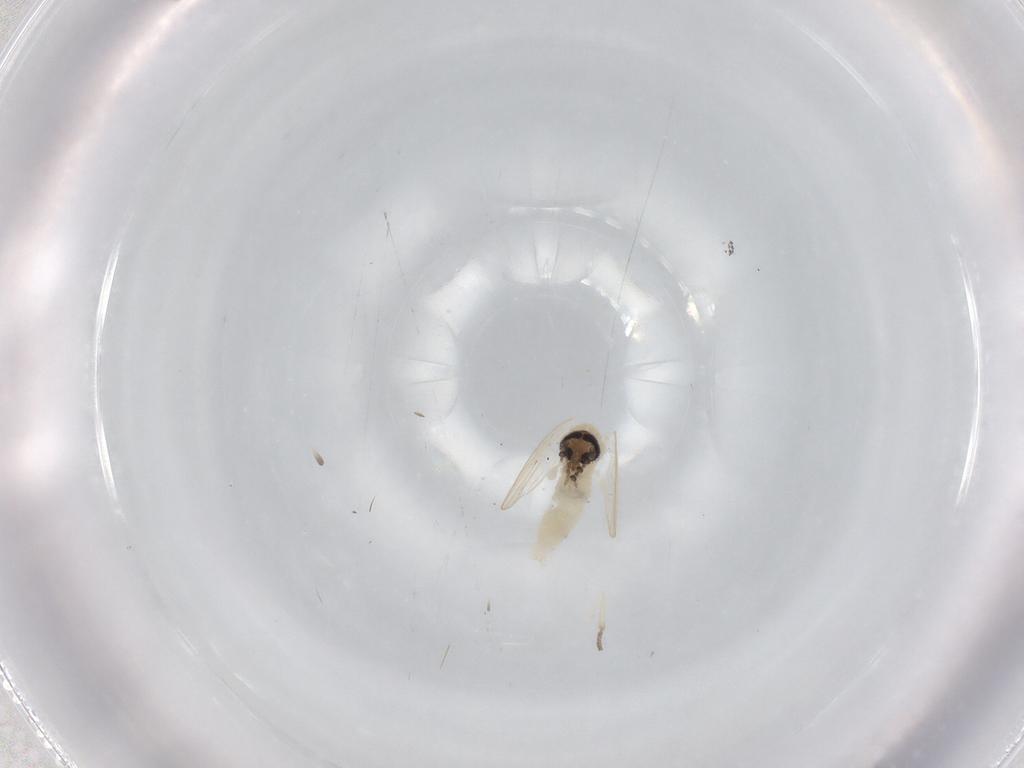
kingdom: Animalia
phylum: Arthropoda
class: Insecta
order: Diptera
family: Psychodidae
